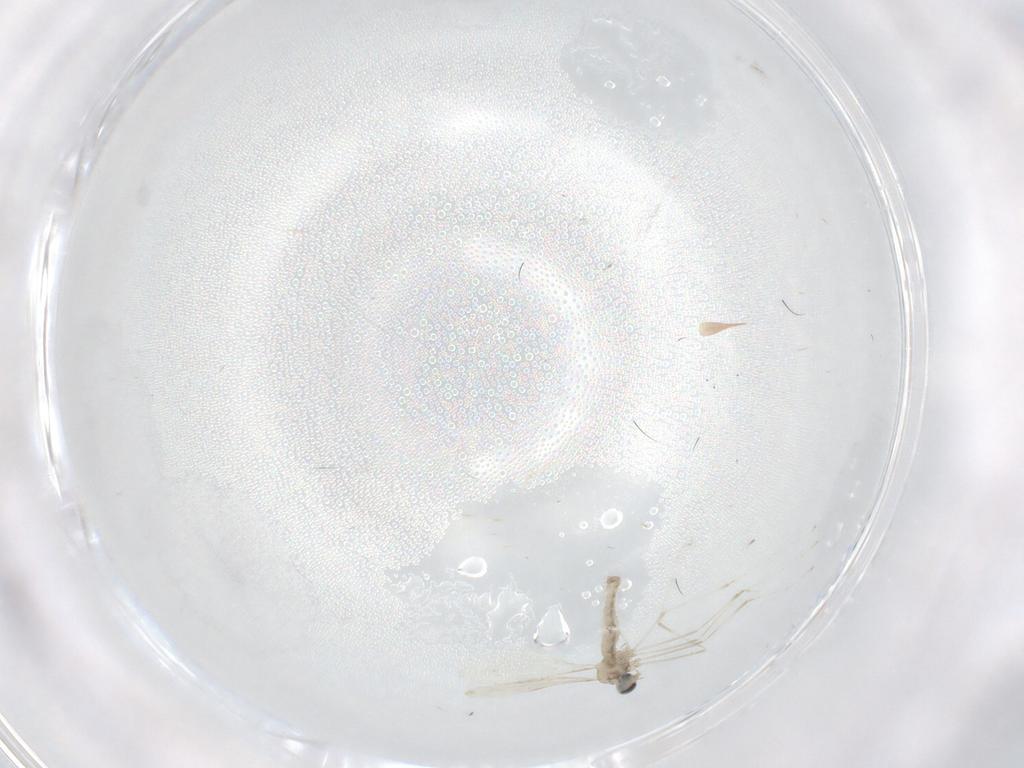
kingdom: Animalia
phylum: Arthropoda
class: Insecta
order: Diptera
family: Cecidomyiidae
